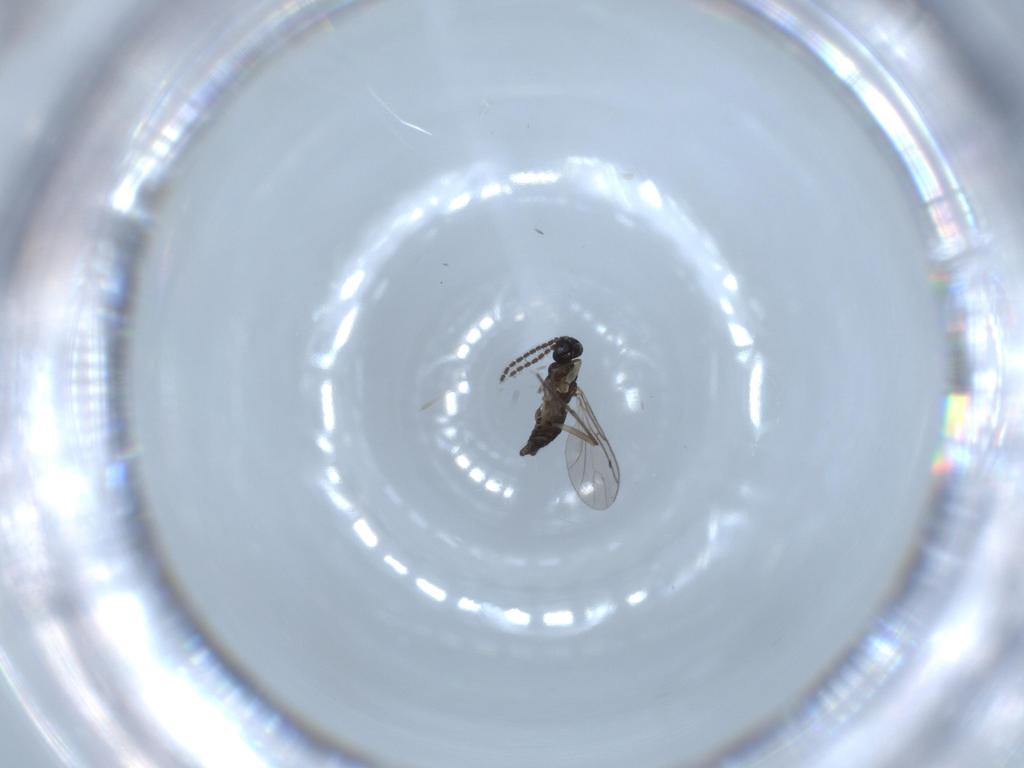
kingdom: Animalia
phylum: Arthropoda
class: Insecta
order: Diptera
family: Sciaridae
